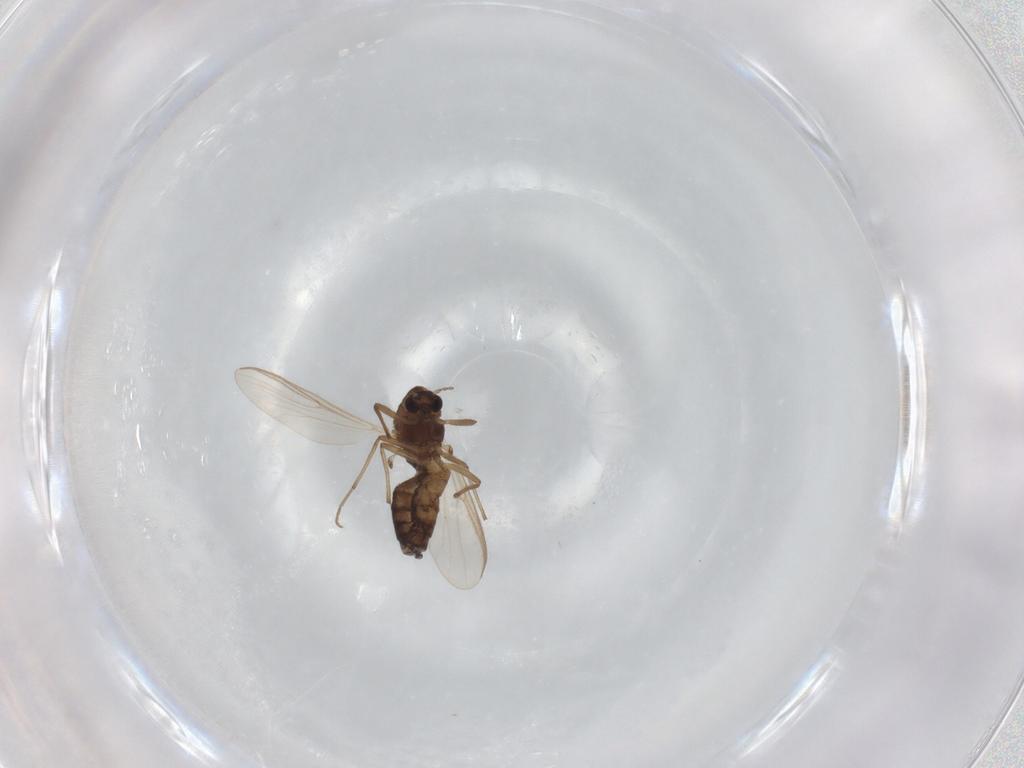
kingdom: Animalia
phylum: Arthropoda
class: Insecta
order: Diptera
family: Chironomidae
